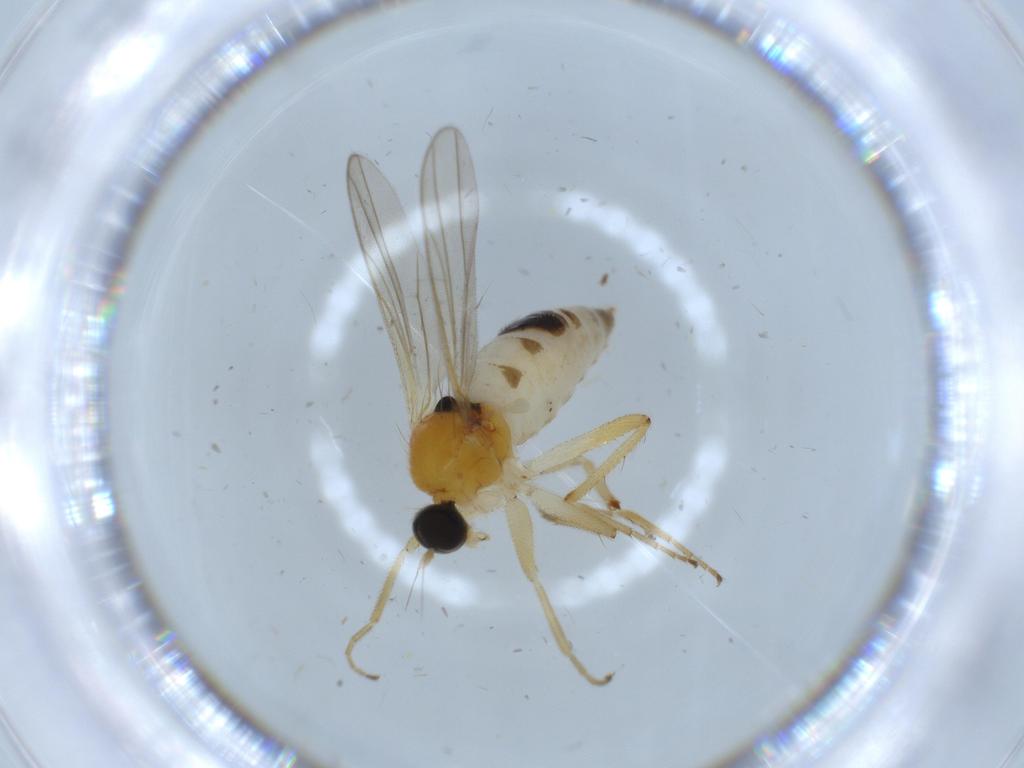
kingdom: Animalia
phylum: Arthropoda
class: Insecta
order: Diptera
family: Hybotidae
